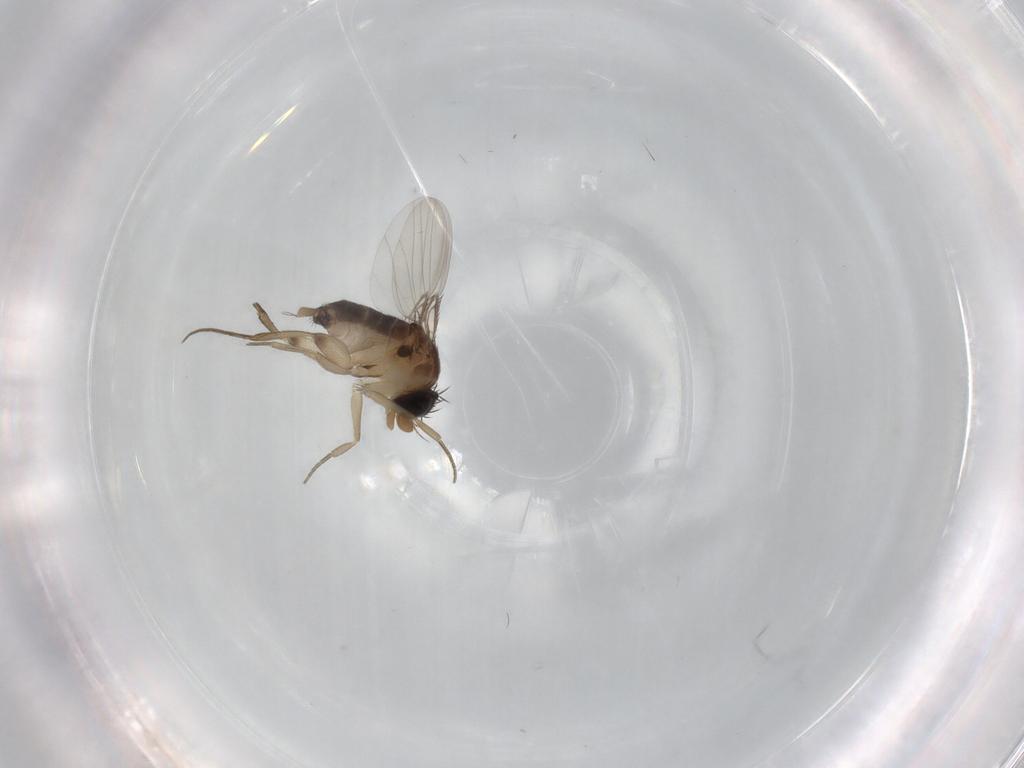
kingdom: Animalia
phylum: Arthropoda
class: Insecta
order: Diptera
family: Phoridae
